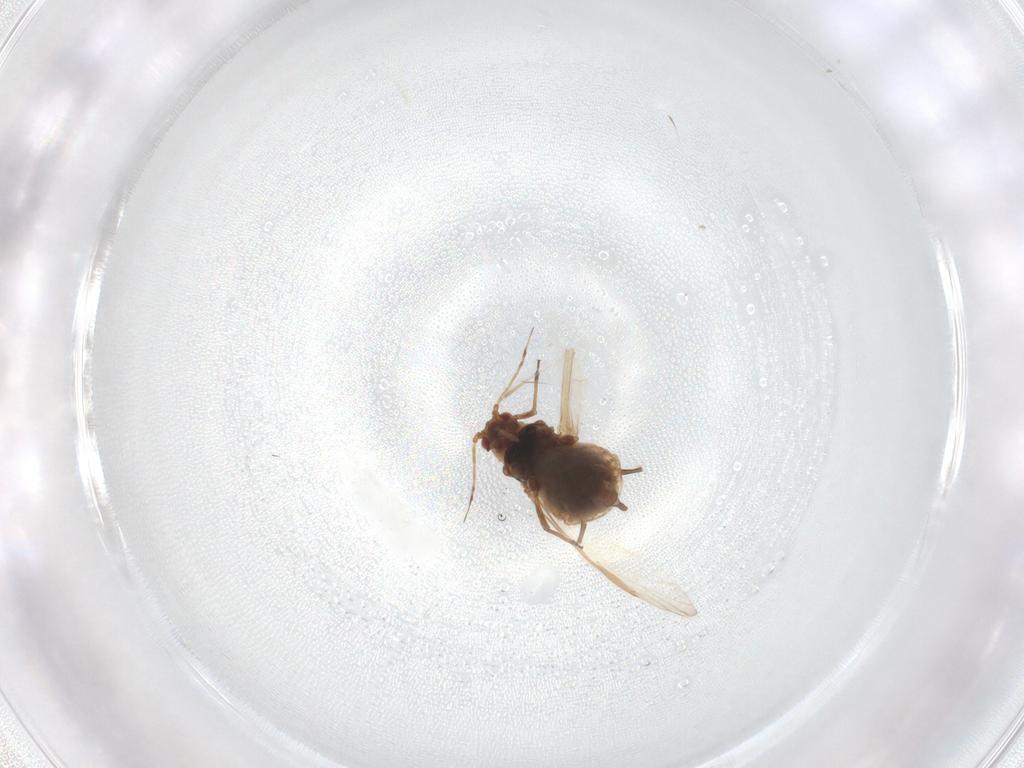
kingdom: Animalia
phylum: Arthropoda
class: Insecta
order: Hemiptera
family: Aphididae
